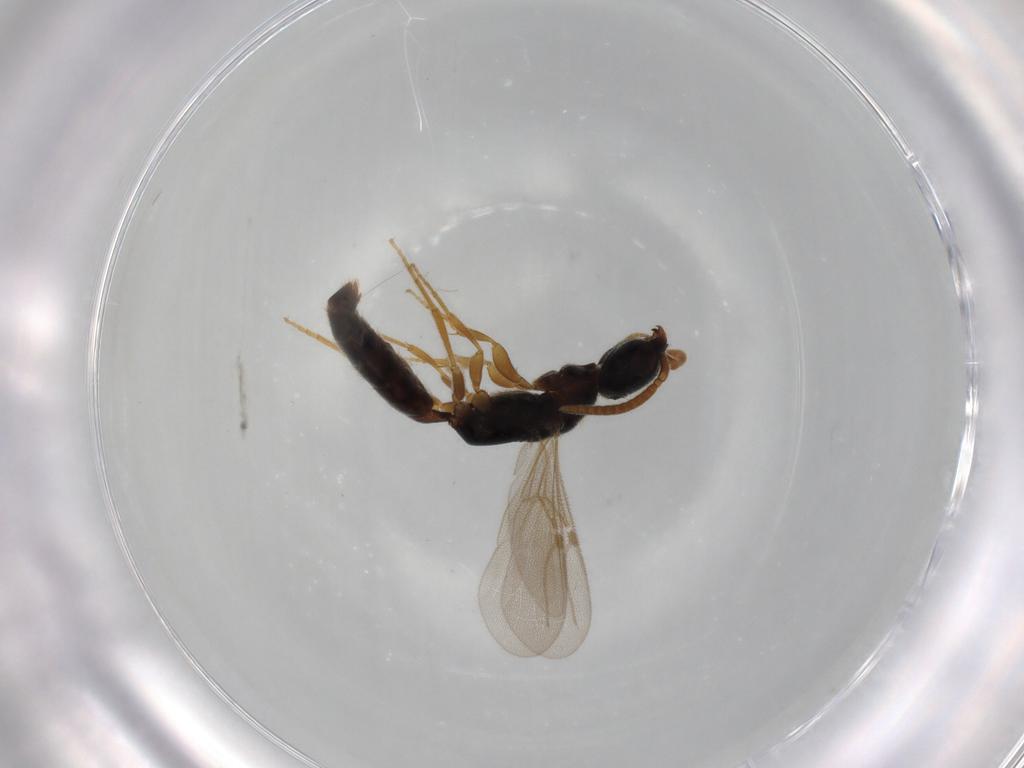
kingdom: Animalia
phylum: Arthropoda
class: Insecta
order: Hymenoptera
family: Bethylidae
